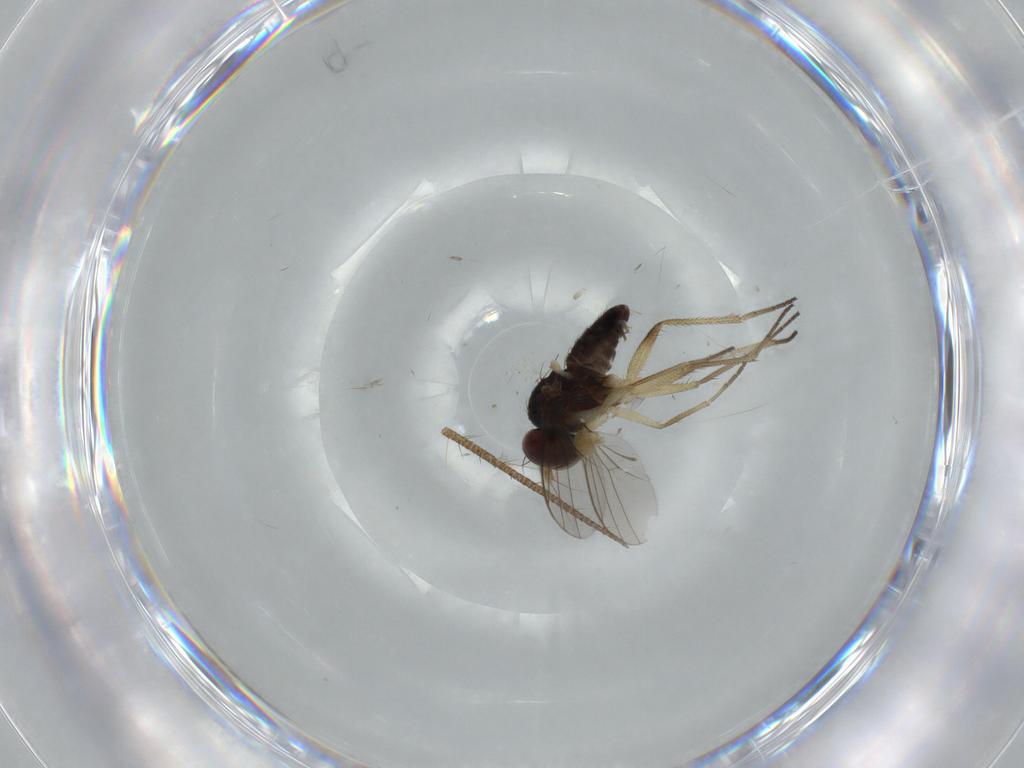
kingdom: Animalia
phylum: Arthropoda
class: Insecta
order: Diptera
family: Dolichopodidae
